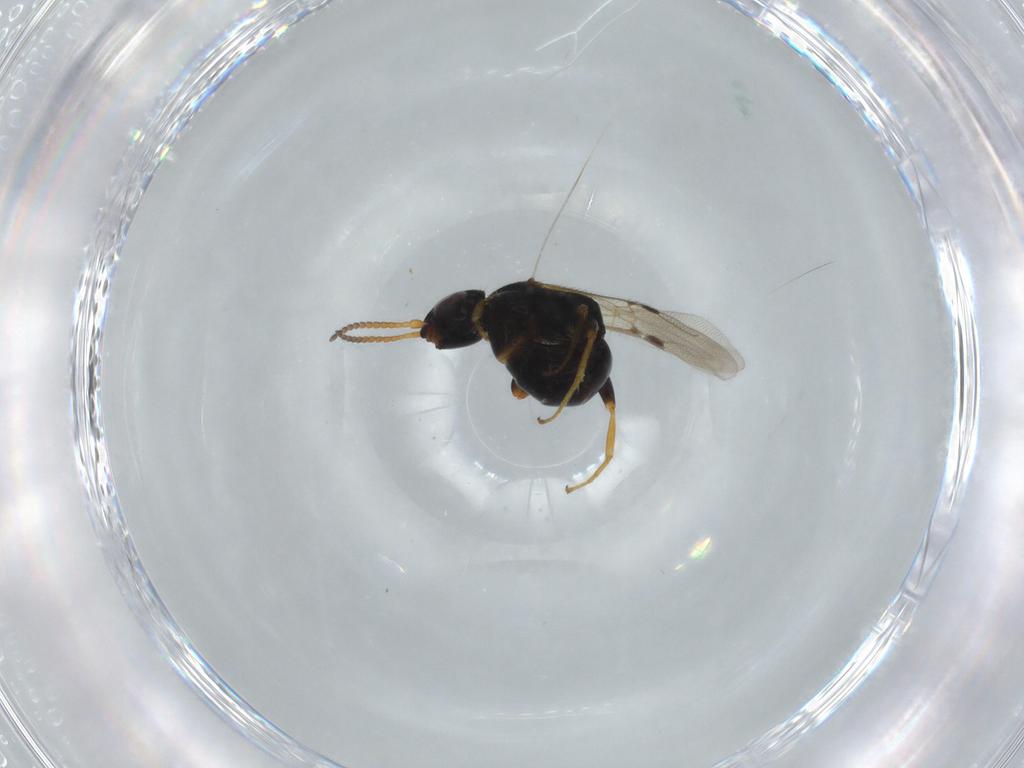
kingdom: Animalia
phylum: Arthropoda
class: Insecta
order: Hymenoptera
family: Bethylidae
